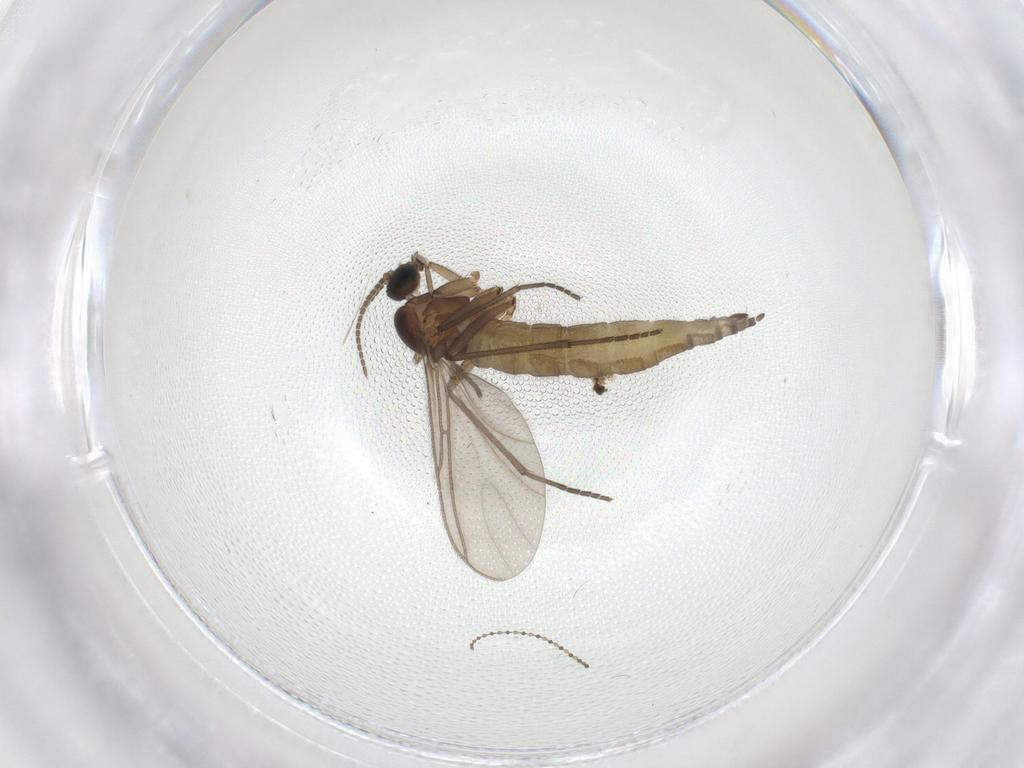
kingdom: Animalia
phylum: Arthropoda
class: Insecta
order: Diptera
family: Sciaridae
